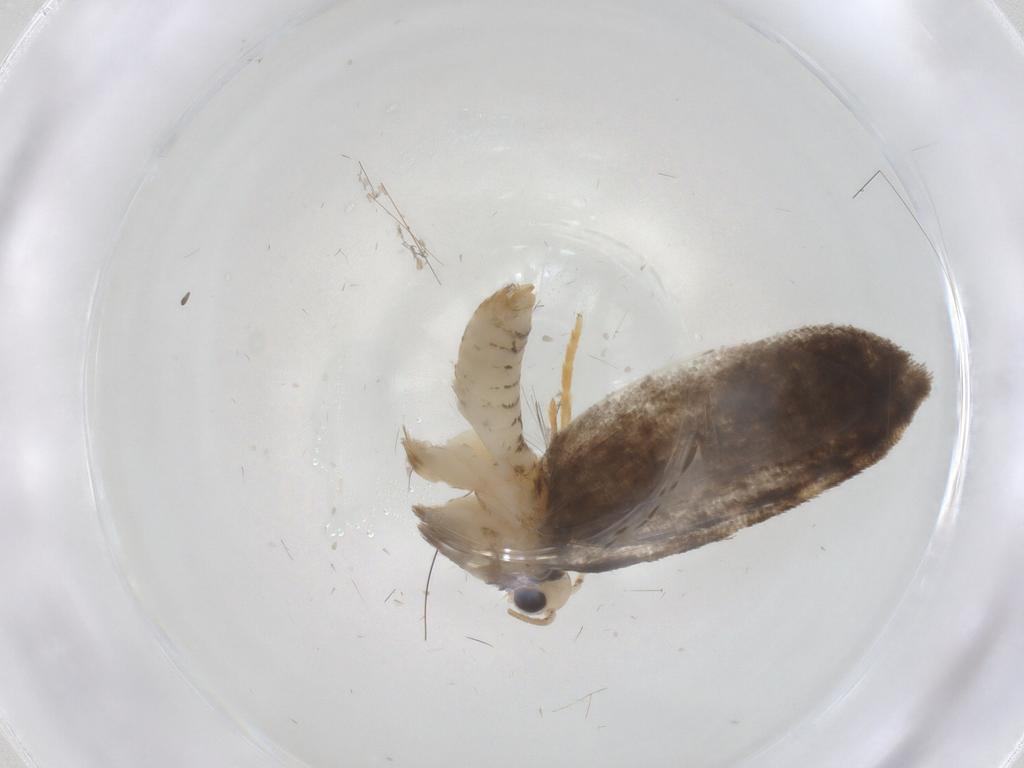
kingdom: Animalia
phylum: Arthropoda
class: Insecta
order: Lepidoptera
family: Psychidae
